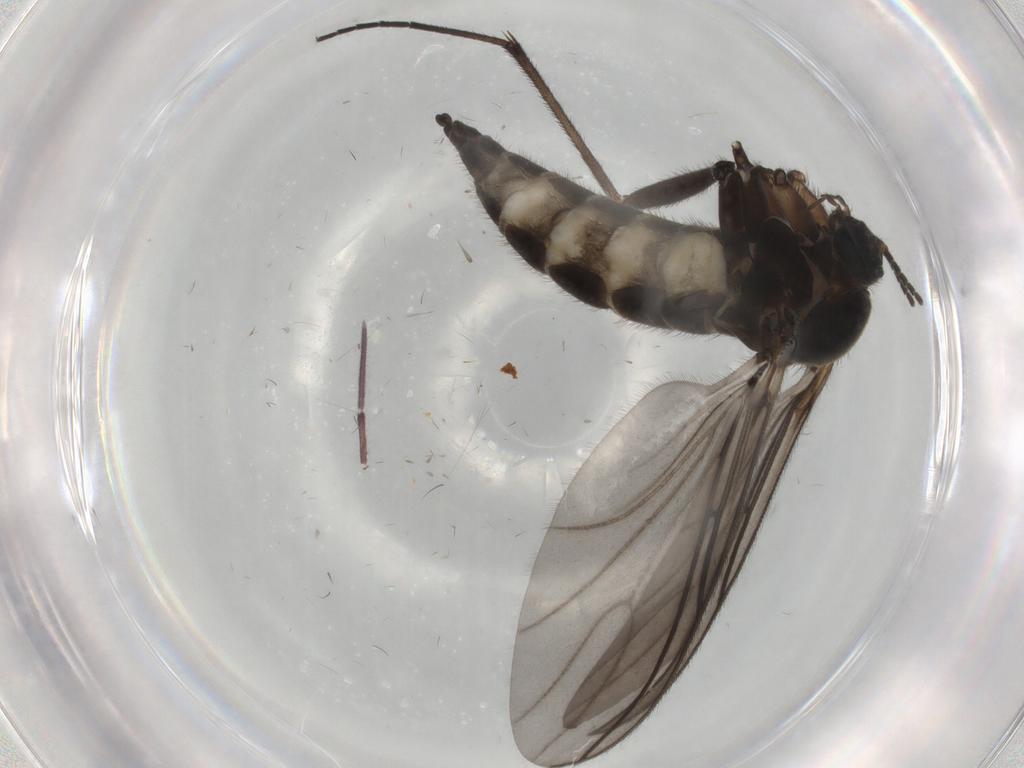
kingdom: Animalia
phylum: Arthropoda
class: Insecta
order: Diptera
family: Sciaridae
